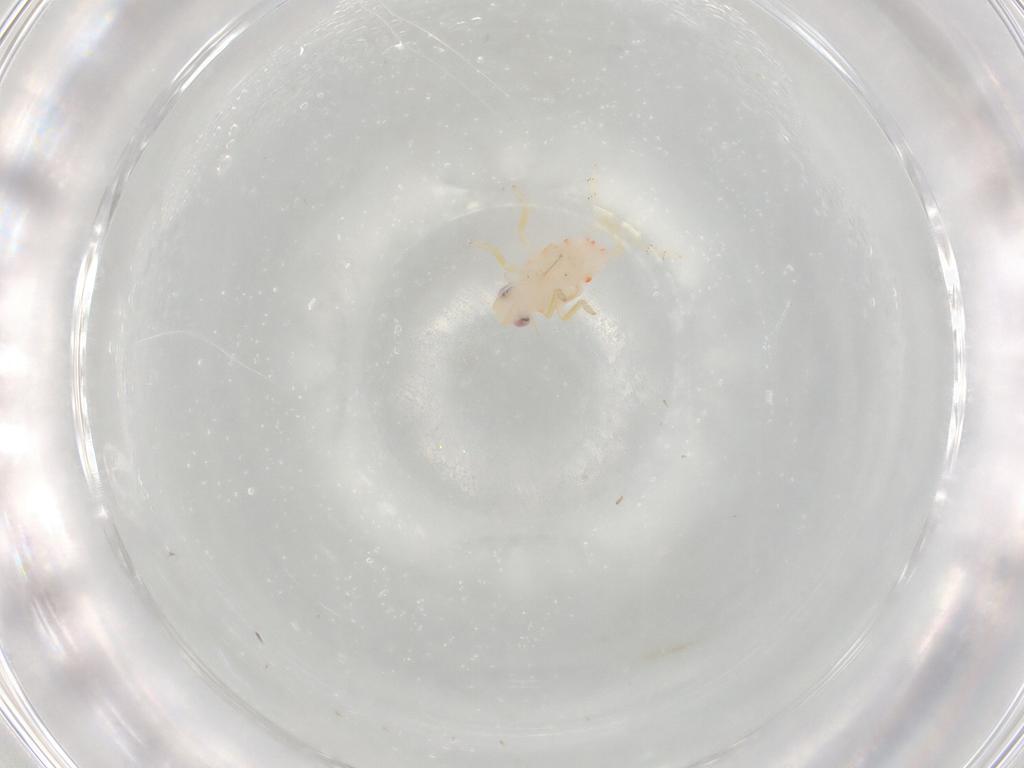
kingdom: Animalia
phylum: Arthropoda
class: Insecta
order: Hemiptera
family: Tropiduchidae
